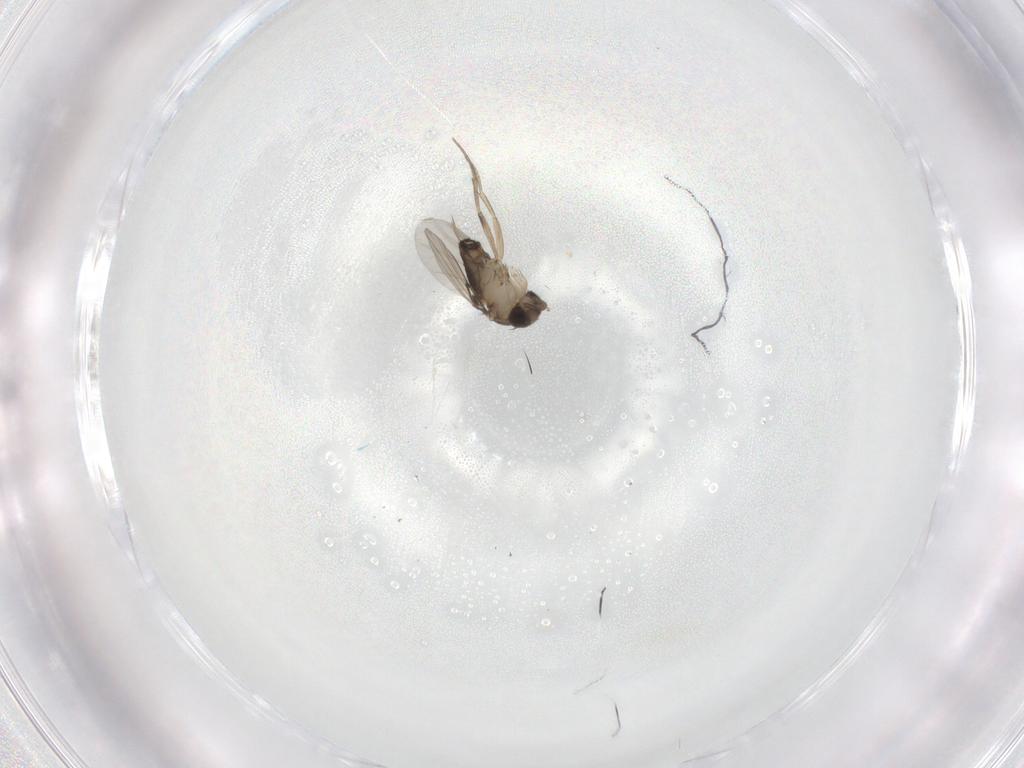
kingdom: Animalia
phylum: Arthropoda
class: Insecta
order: Diptera
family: Phoridae
